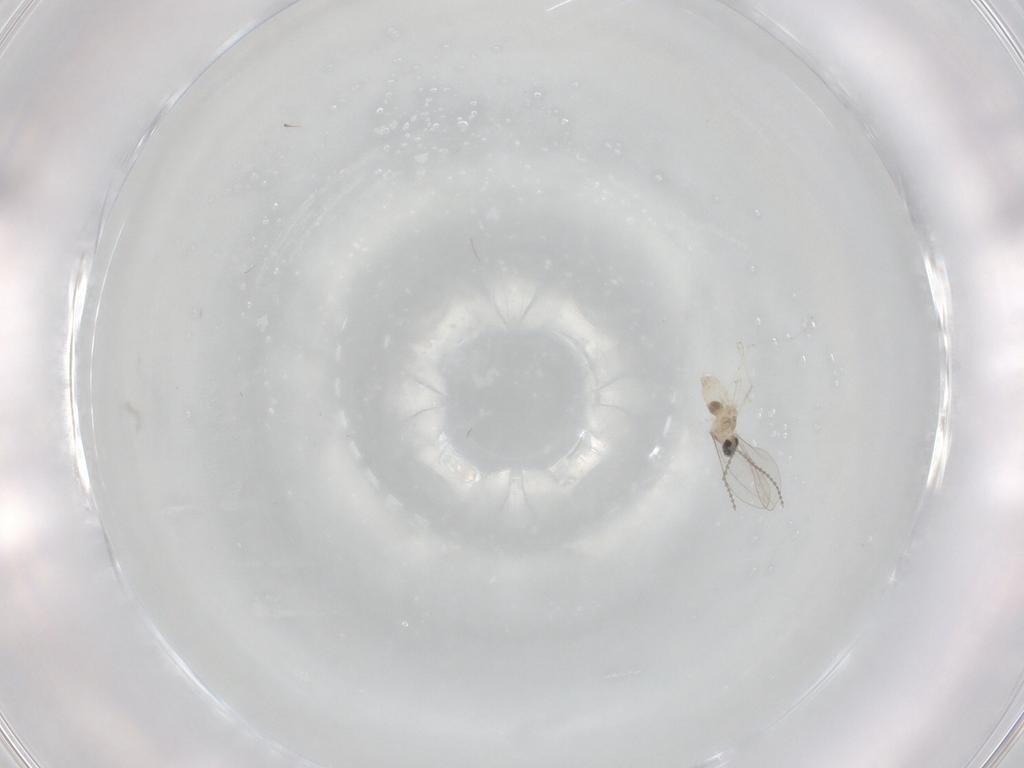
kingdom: Animalia
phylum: Arthropoda
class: Insecta
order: Diptera
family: Cecidomyiidae
